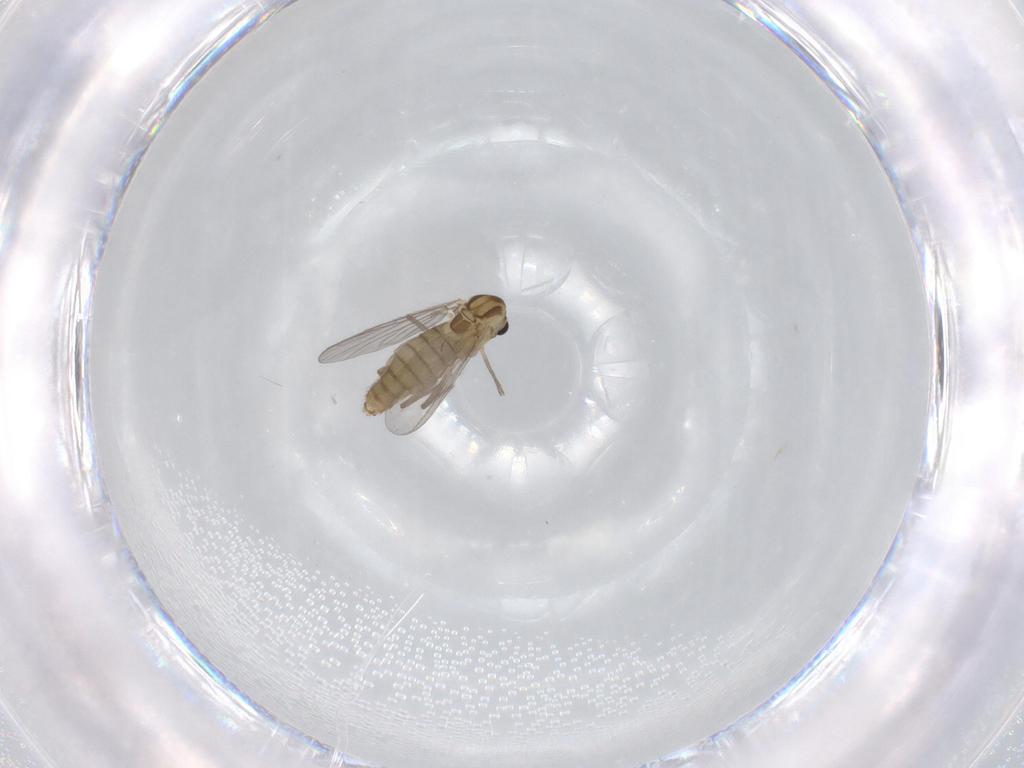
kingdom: Animalia
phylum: Arthropoda
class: Insecta
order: Diptera
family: Chironomidae
